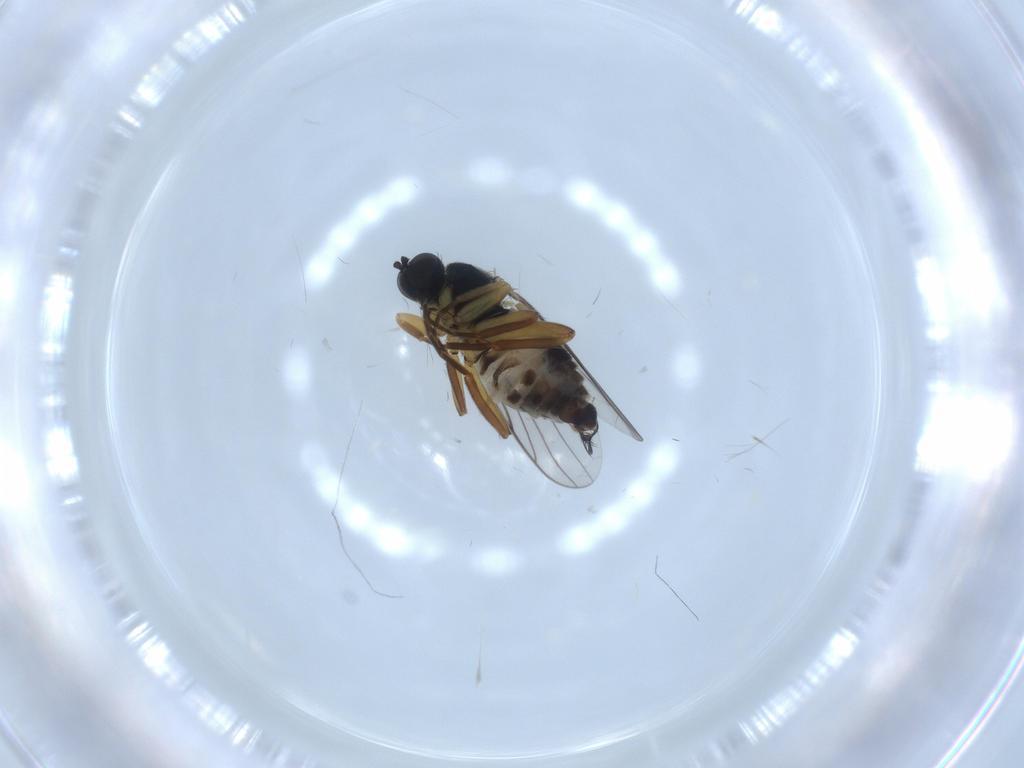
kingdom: Animalia
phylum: Arthropoda
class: Insecta
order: Diptera
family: Hybotidae
